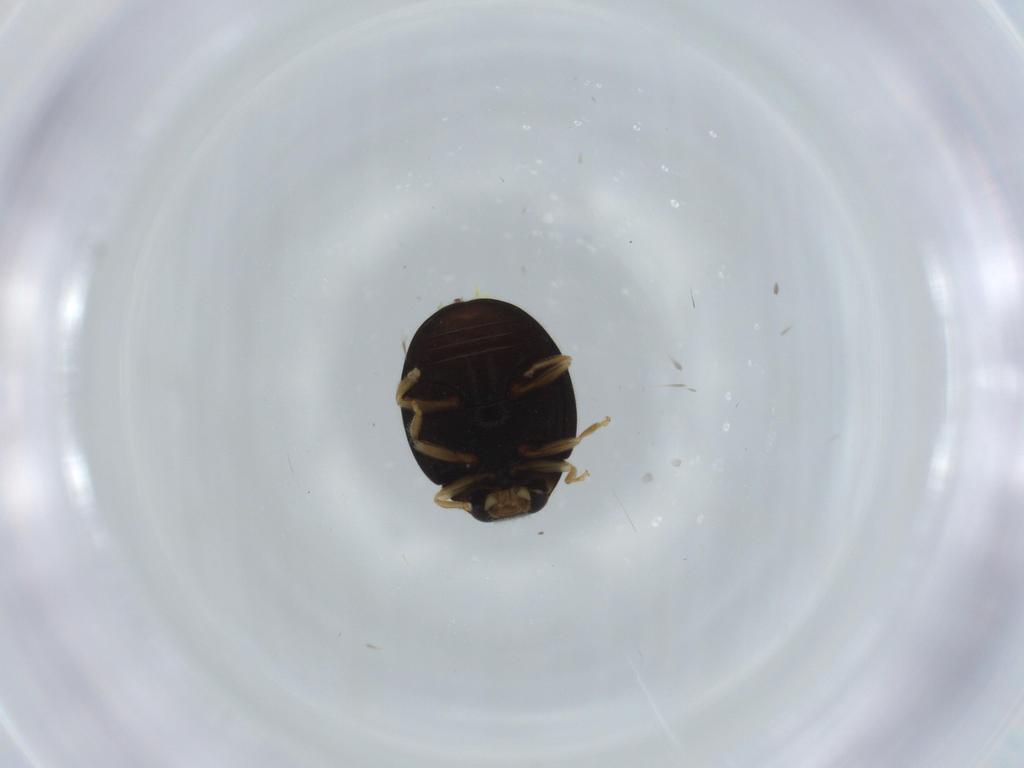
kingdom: Animalia
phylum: Arthropoda
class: Insecta
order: Coleoptera
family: Coccinellidae
